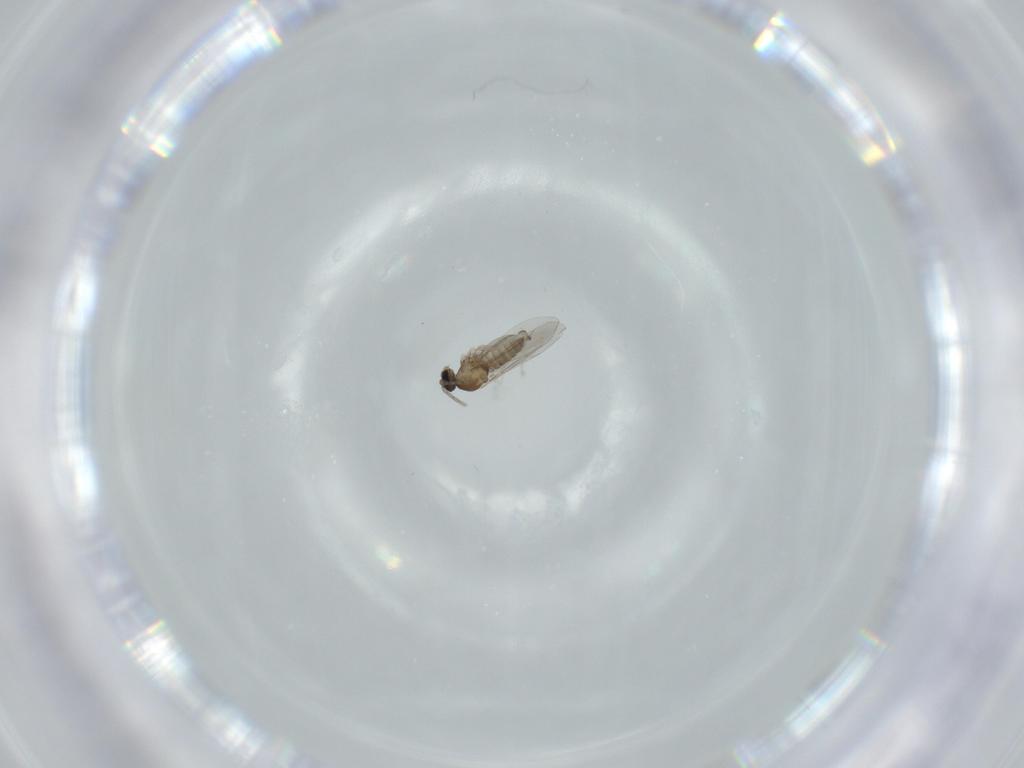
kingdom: Animalia
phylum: Arthropoda
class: Insecta
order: Diptera
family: Cecidomyiidae
